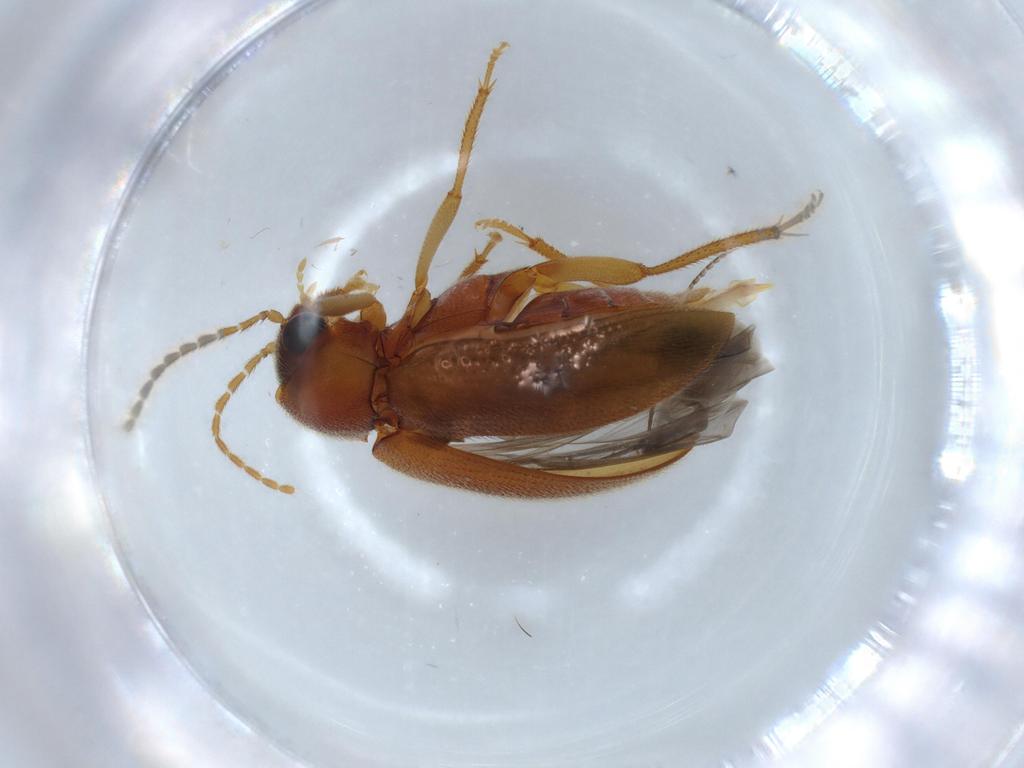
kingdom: Animalia
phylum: Arthropoda
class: Insecta
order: Coleoptera
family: Ptilodactylidae
